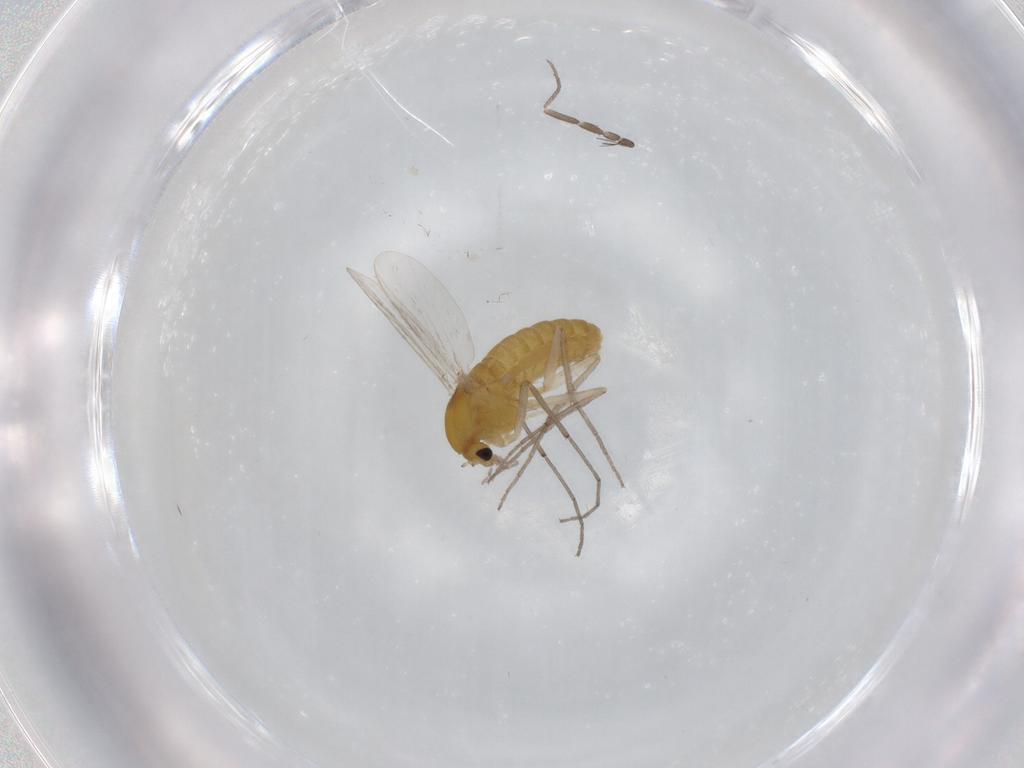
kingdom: Animalia
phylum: Arthropoda
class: Insecta
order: Diptera
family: Chironomidae
